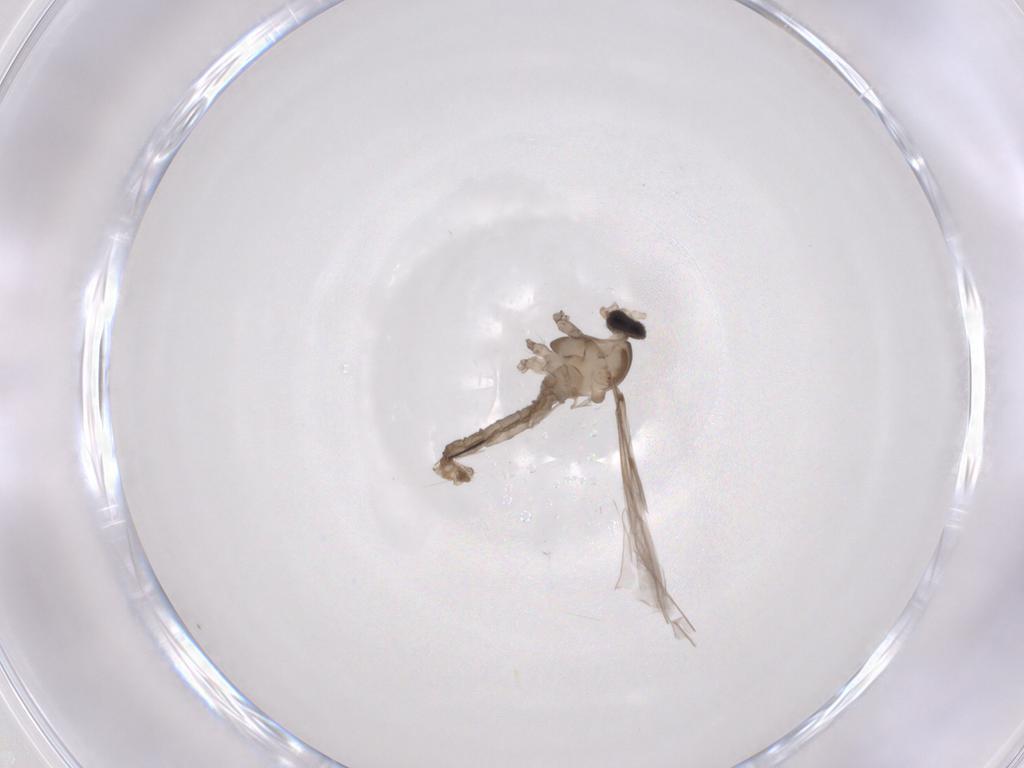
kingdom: Animalia
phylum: Arthropoda
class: Insecta
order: Diptera
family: Cecidomyiidae
